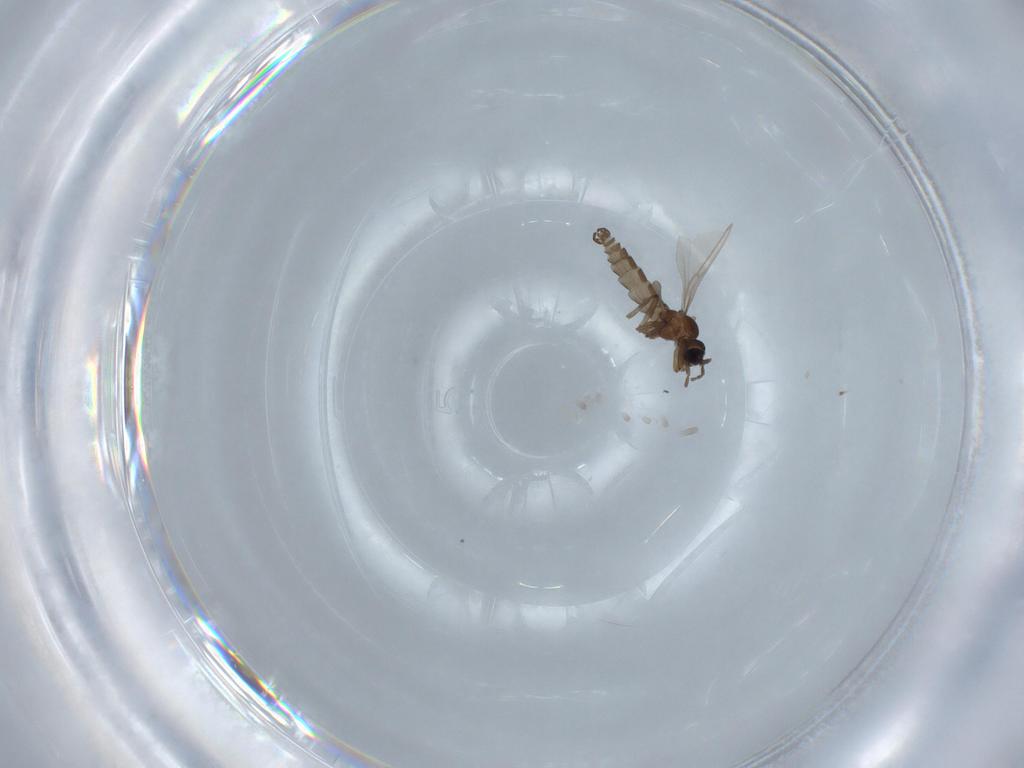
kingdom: Animalia
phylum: Arthropoda
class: Insecta
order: Diptera
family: Sciaridae
